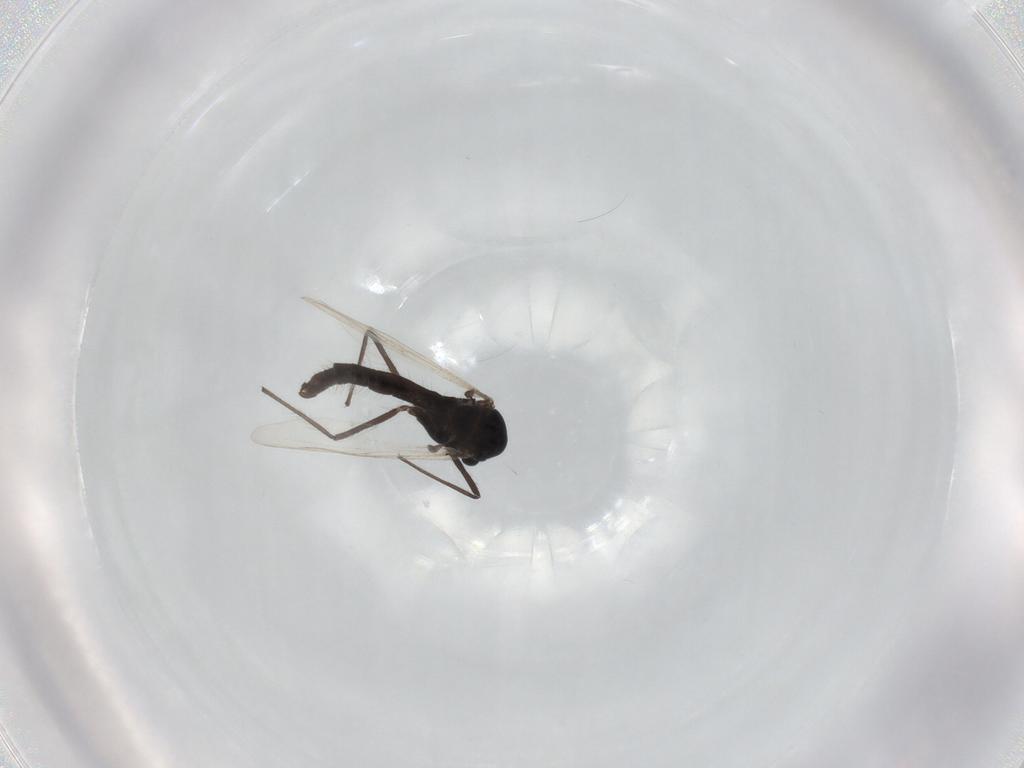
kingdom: Animalia
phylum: Arthropoda
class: Insecta
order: Diptera
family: Chironomidae
